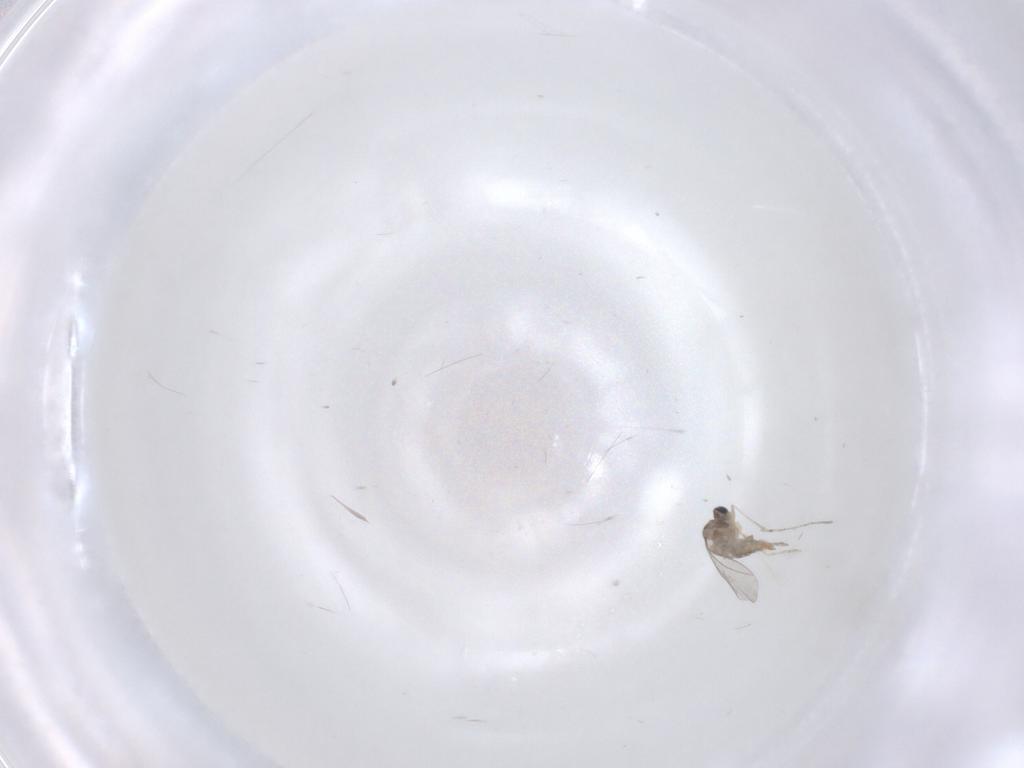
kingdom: Animalia
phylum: Arthropoda
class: Insecta
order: Diptera
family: Cecidomyiidae
